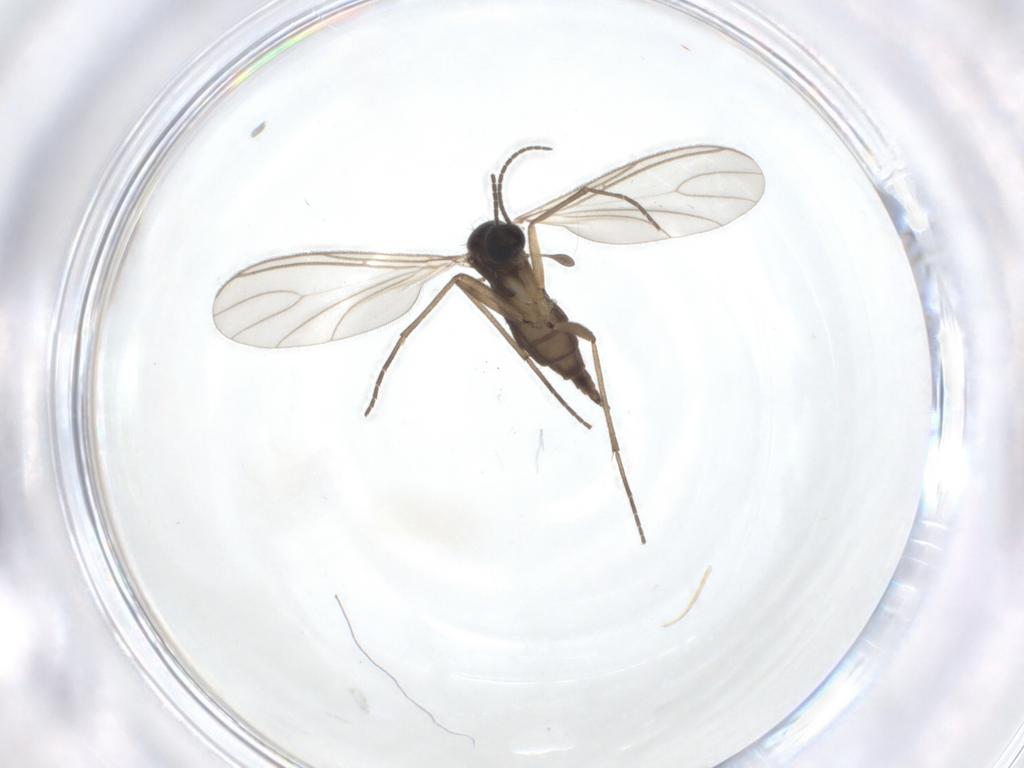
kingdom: Animalia
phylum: Arthropoda
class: Insecta
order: Diptera
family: Sciaridae
